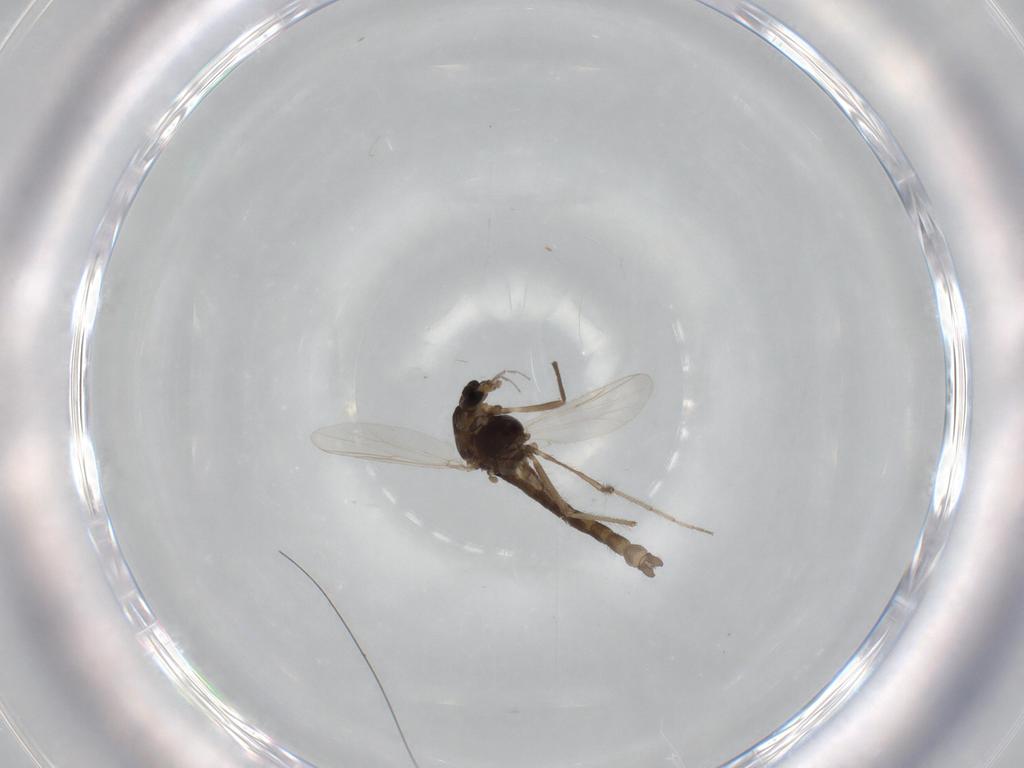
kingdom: Animalia
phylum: Arthropoda
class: Insecta
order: Diptera
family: Chironomidae
